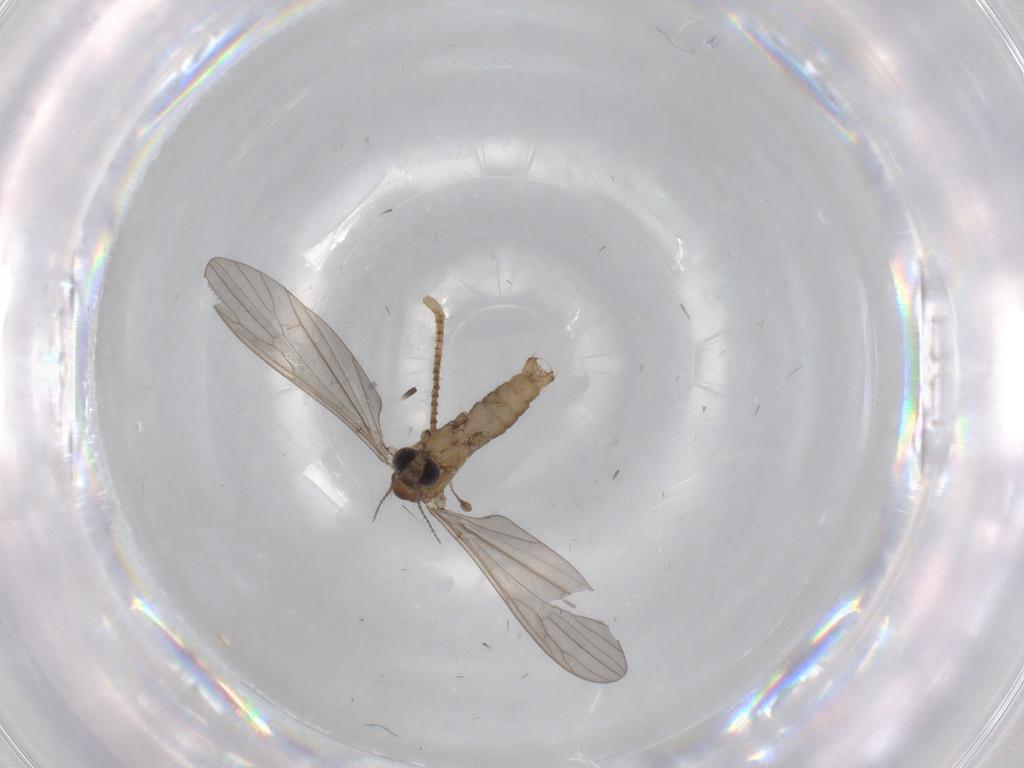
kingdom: Animalia
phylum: Arthropoda
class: Insecta
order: Diptera
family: Limoniidae
